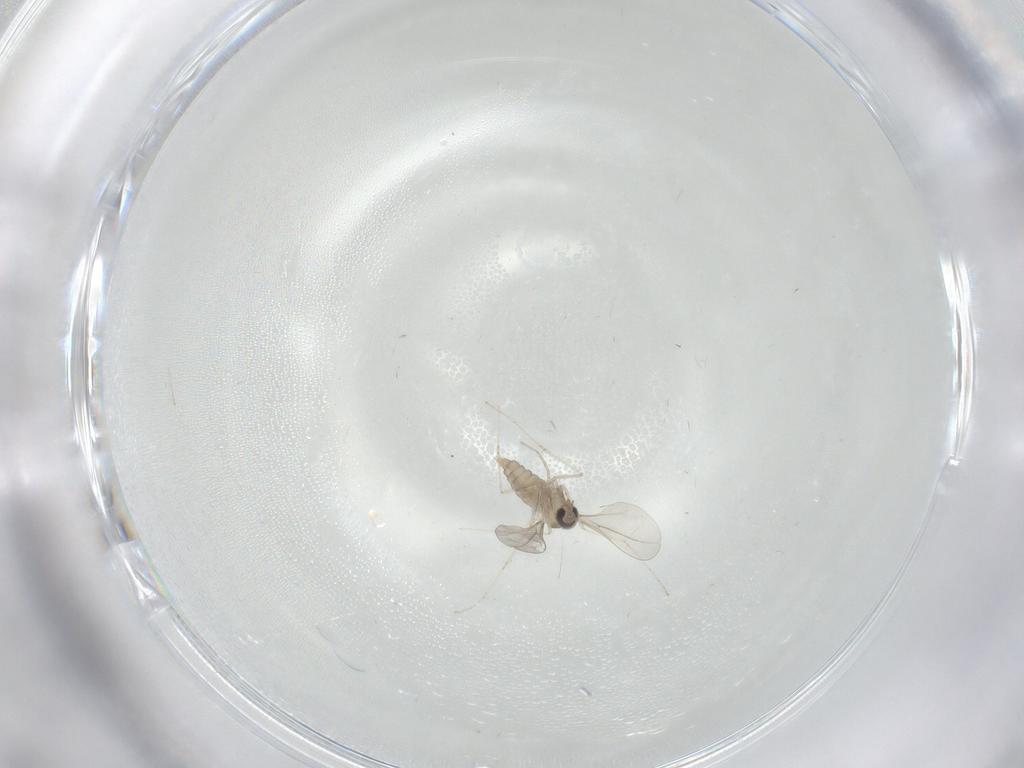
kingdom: Animalia
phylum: Arthropoda
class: Insecta
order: Diptera
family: Cecidomyiidae
